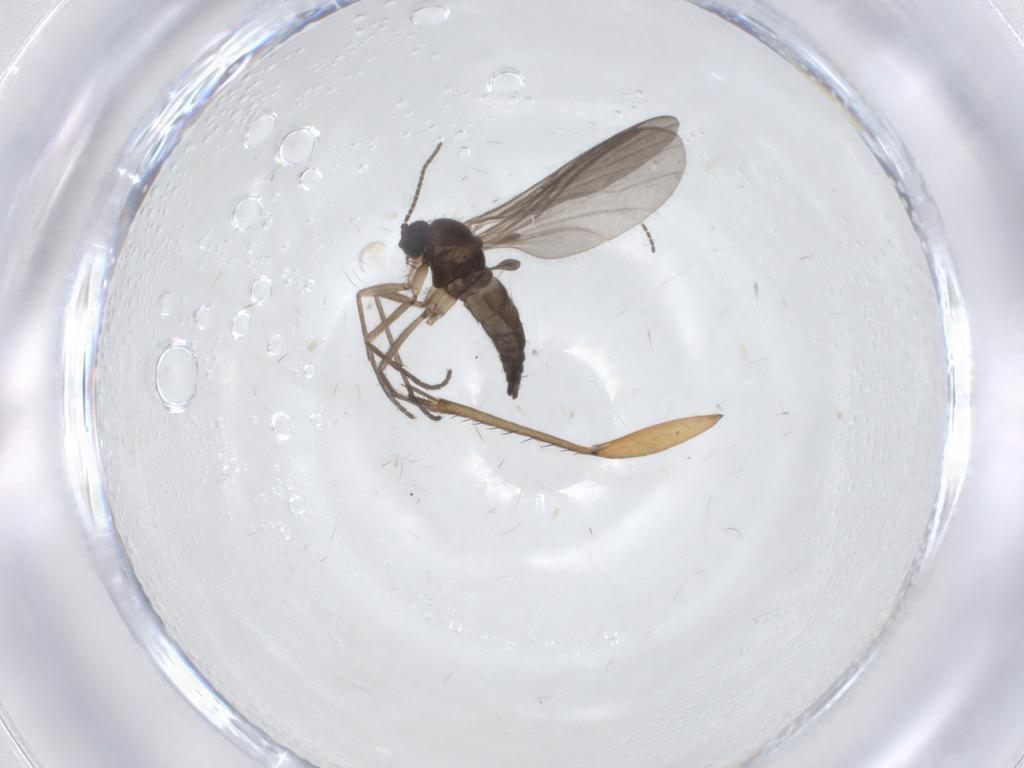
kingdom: Animalia
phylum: Arthropoda
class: Insecta
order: Diptera
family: Sciaridae
